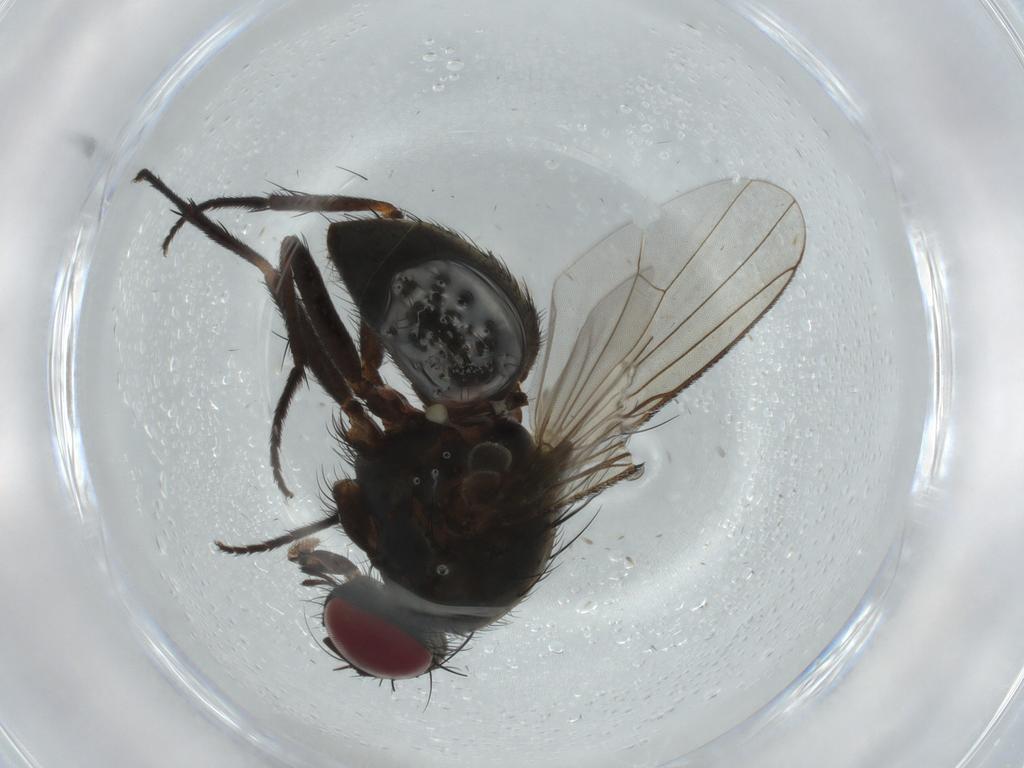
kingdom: Animalia
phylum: Arthropoda
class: Insecta
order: Diptera
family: Muscidae
